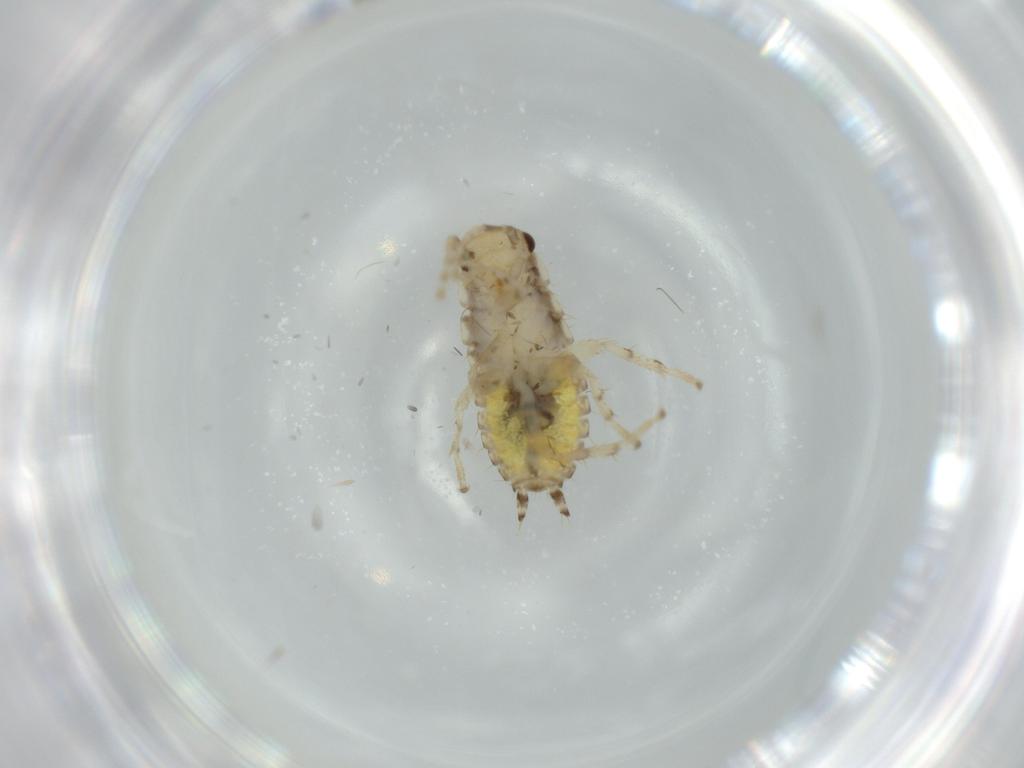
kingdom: Animalia
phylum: Arthropoda
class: Insecta
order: Blattodea
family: Ectobiidae
